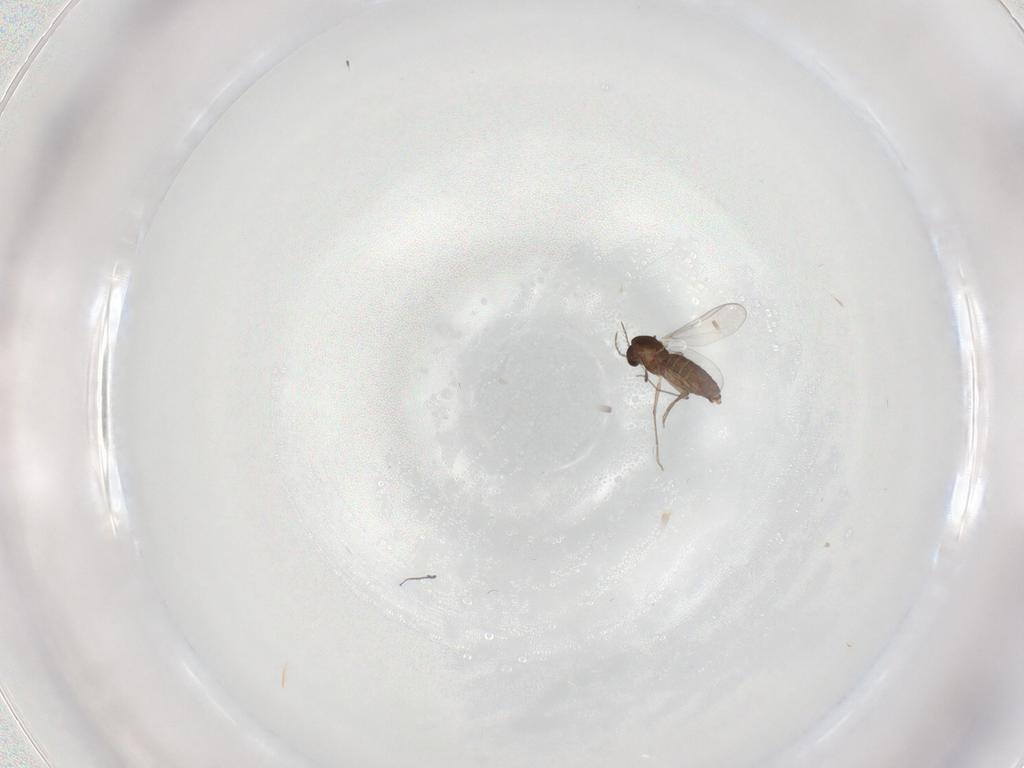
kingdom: Animalia
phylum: Arthropoda
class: Insecta
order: Diptera
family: Chironomidae
